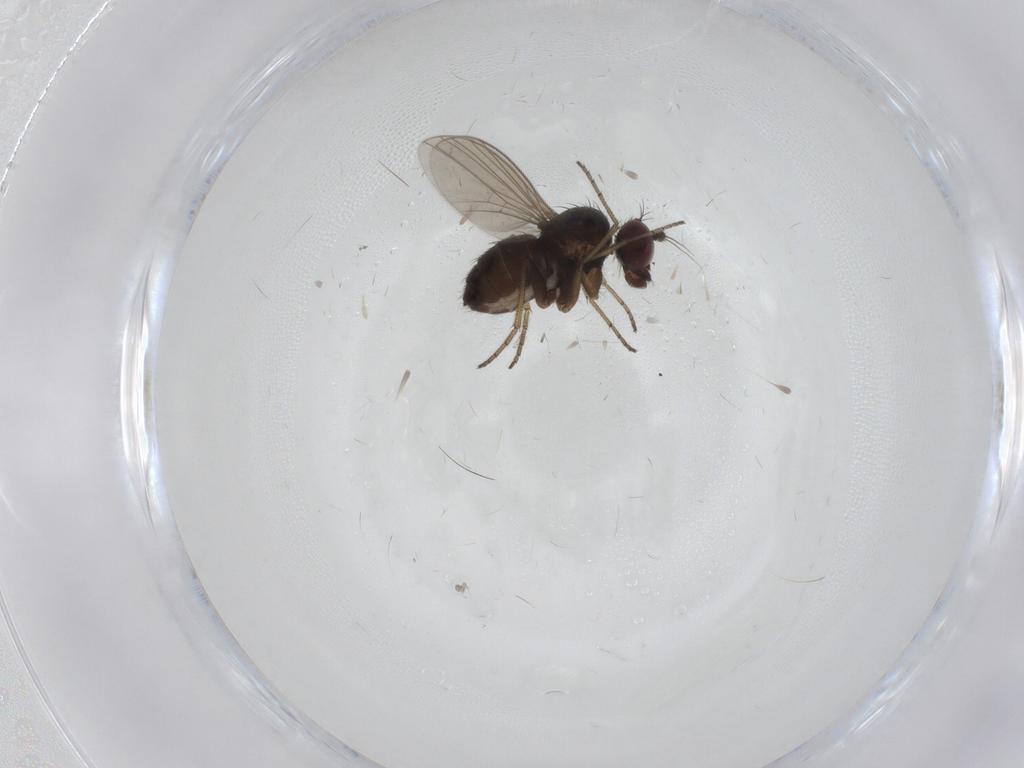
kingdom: Animalia
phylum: Arthropoda
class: Insecta
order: Diptera
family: Dolichopodidae
